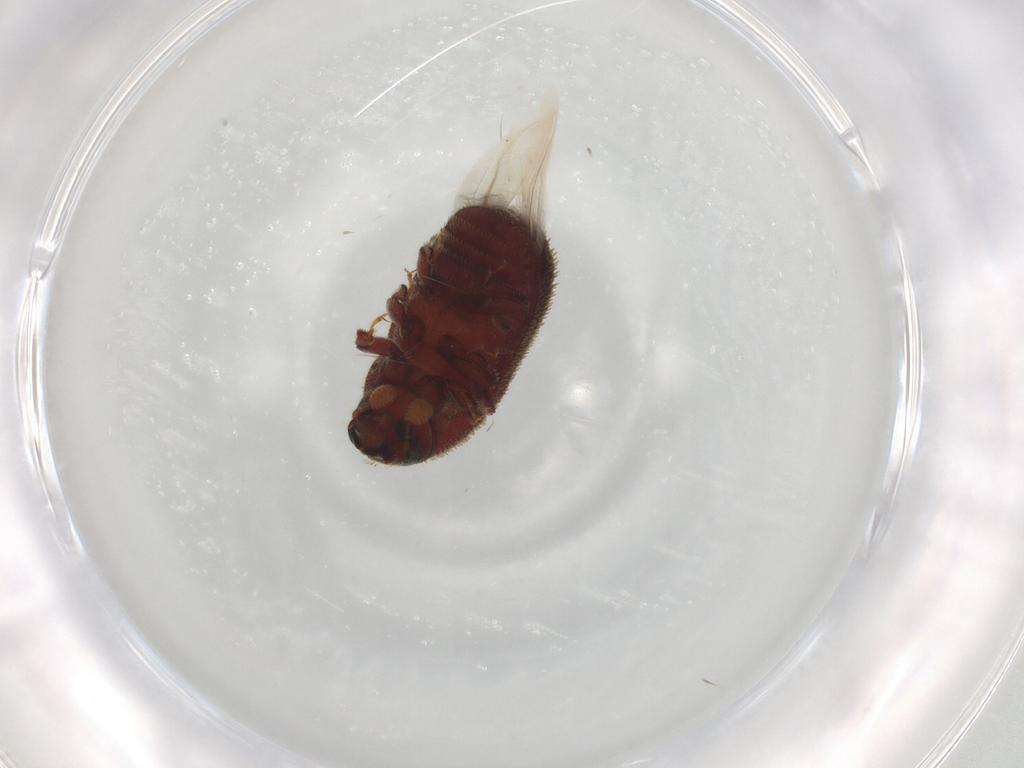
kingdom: Animalia
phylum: Arthropoda
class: Insecta
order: Coleoptera
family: Curculionidae
